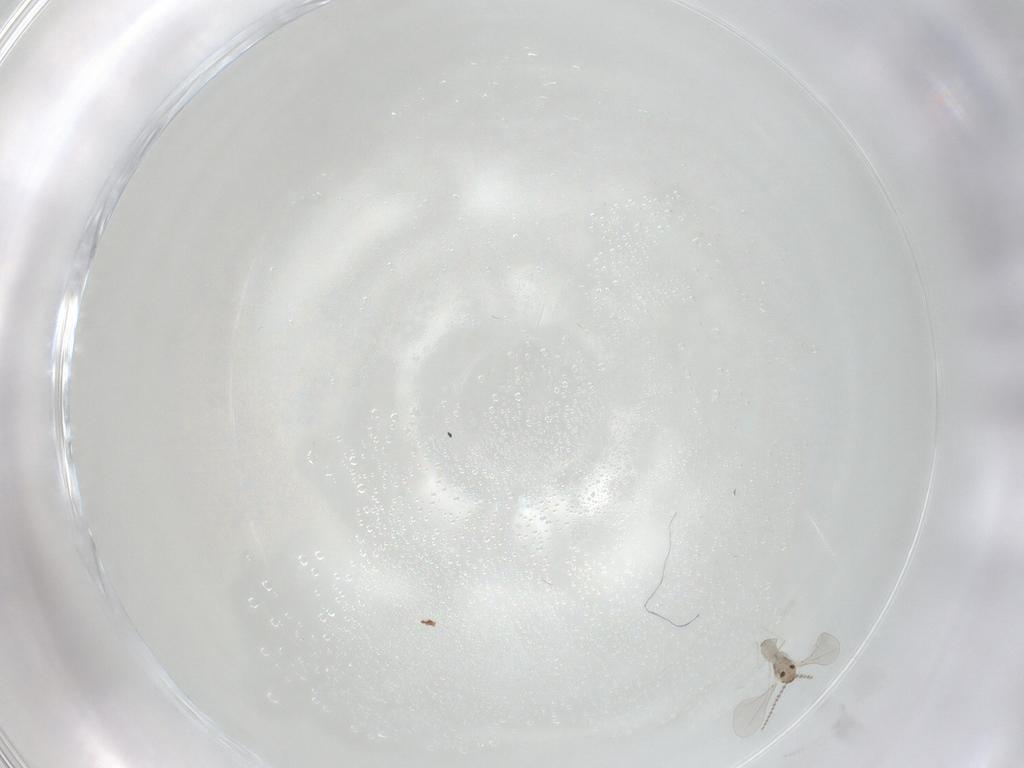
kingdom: Animalia
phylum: Arthropoda
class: Insecta
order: Diptera
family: Cecidomyiidae
